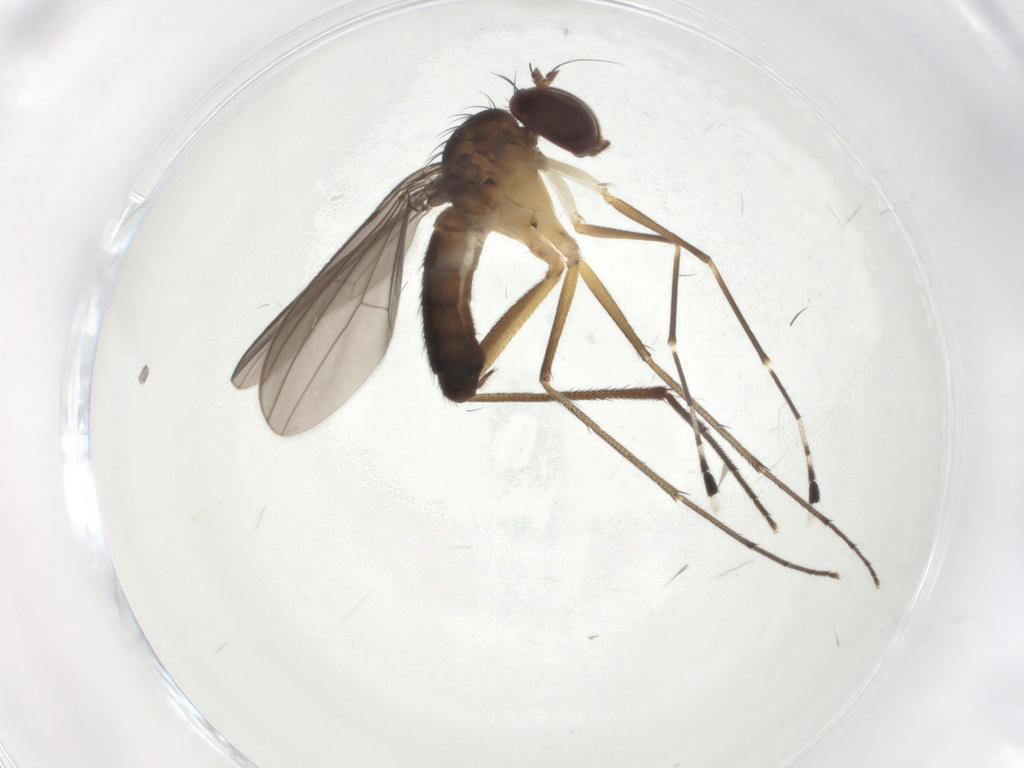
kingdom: Animalia
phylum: Arthropoda
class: Insecta
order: Diptera
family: Dolichopodidae
